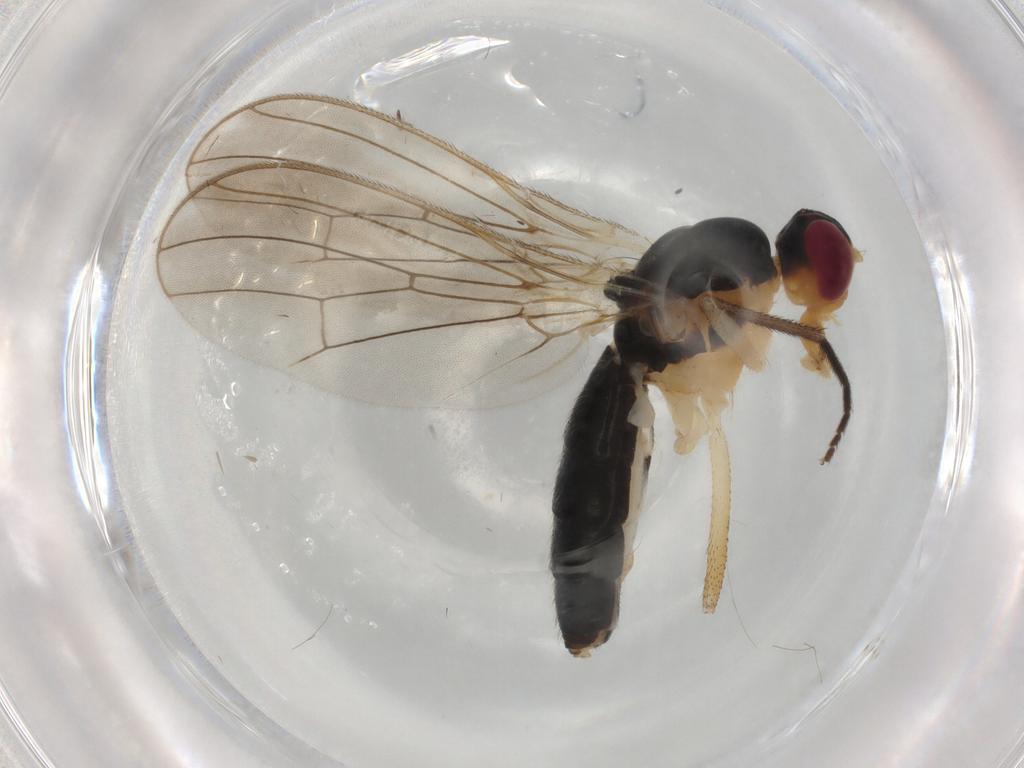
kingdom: Animalia
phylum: Arthropoda
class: Insecta
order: Diptera
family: Scathophagidae
